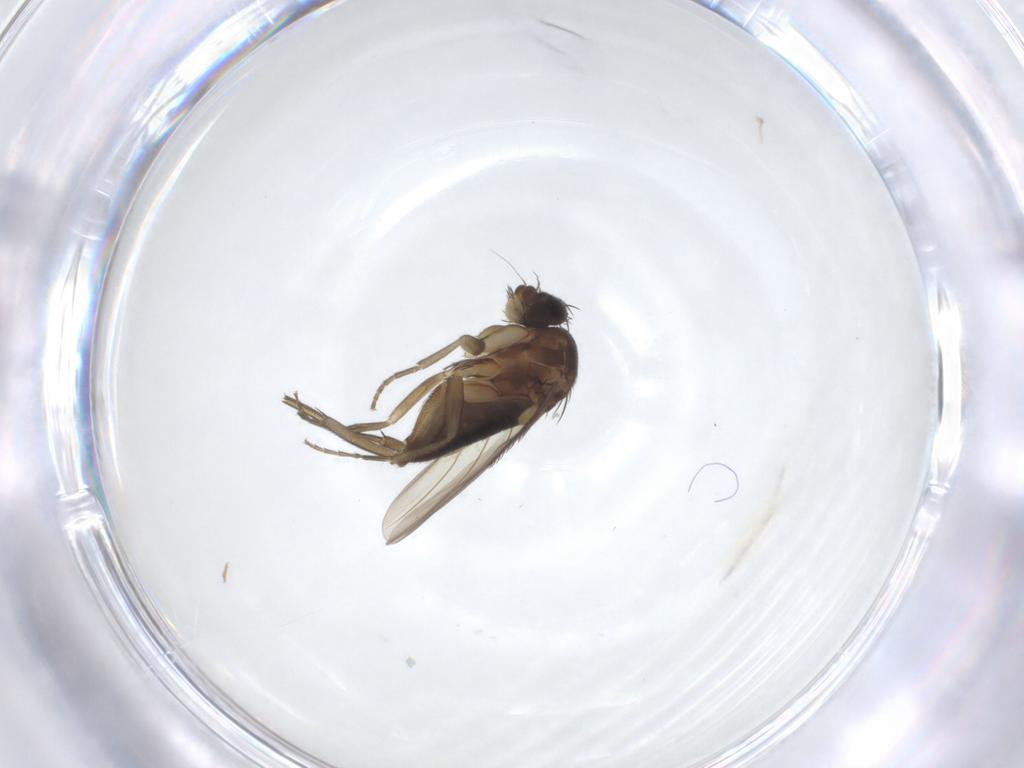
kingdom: Animalia
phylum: Arthropoda
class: Insecta
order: Diptera
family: Phoridae
